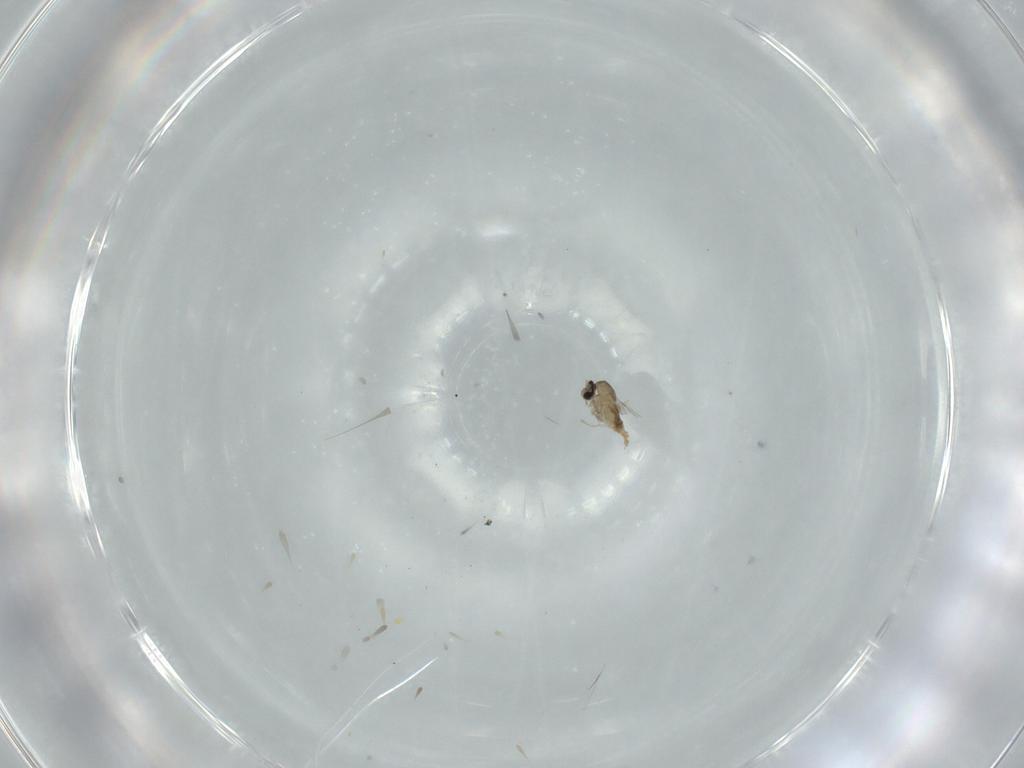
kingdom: Animalia
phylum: Arthropoda
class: Insecta
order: Diptera
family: Cecidomyiidae
